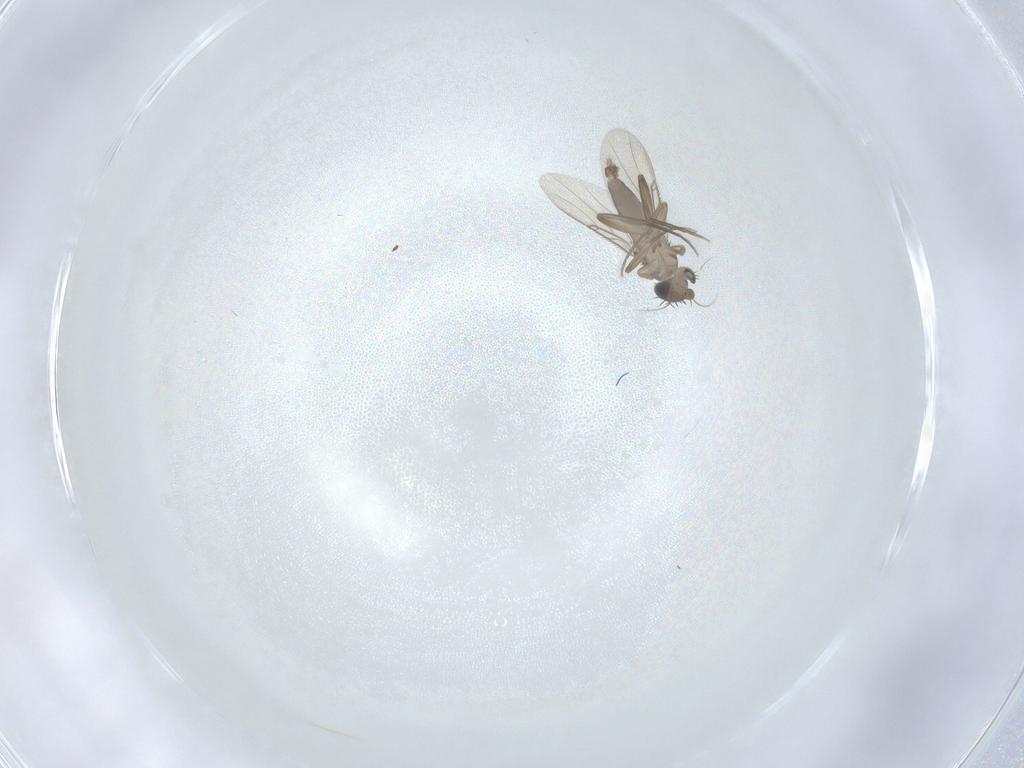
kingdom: Animalia
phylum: Arthropoda
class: Insecta
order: Diptera
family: Phoridae
